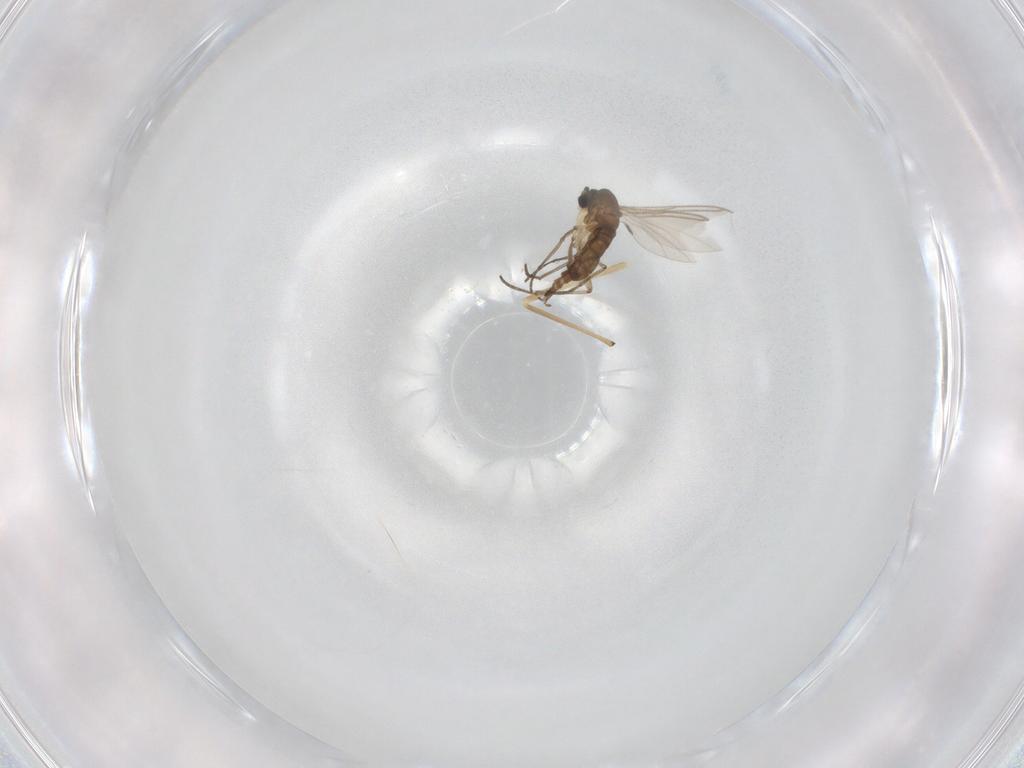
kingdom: Animalia
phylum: Arthropoda
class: Insecta
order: Diptera
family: Sciaridae
